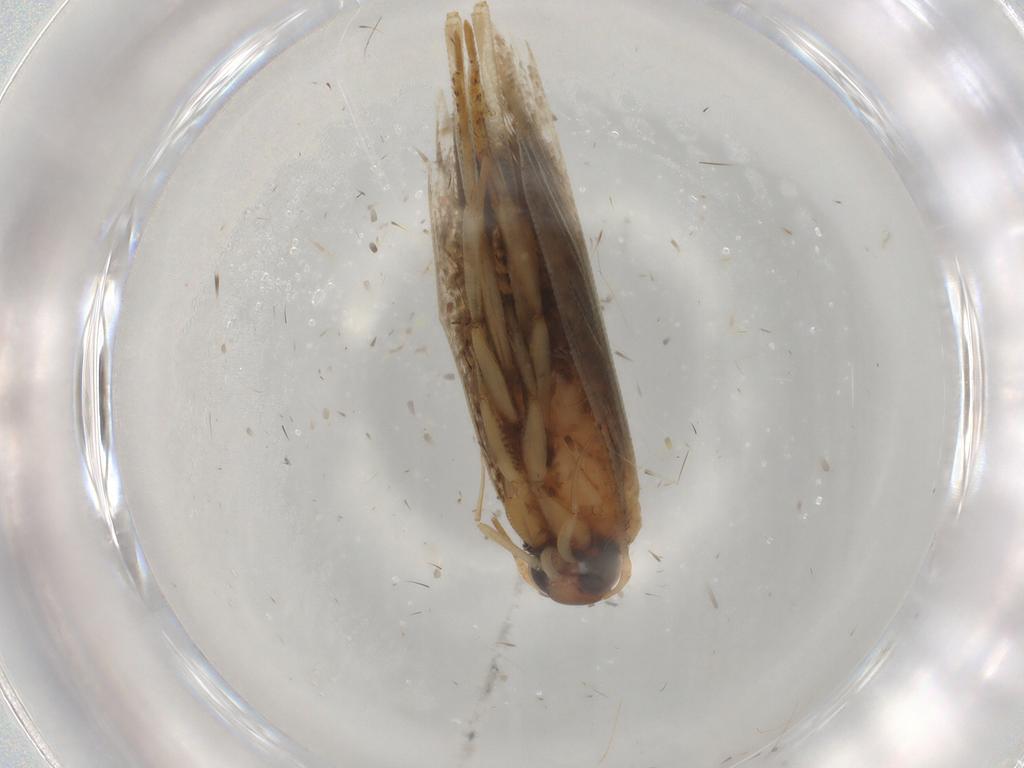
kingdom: Animalia
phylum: Arthropoda
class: Insecta
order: Lepidoptera
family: Gelechiidae
